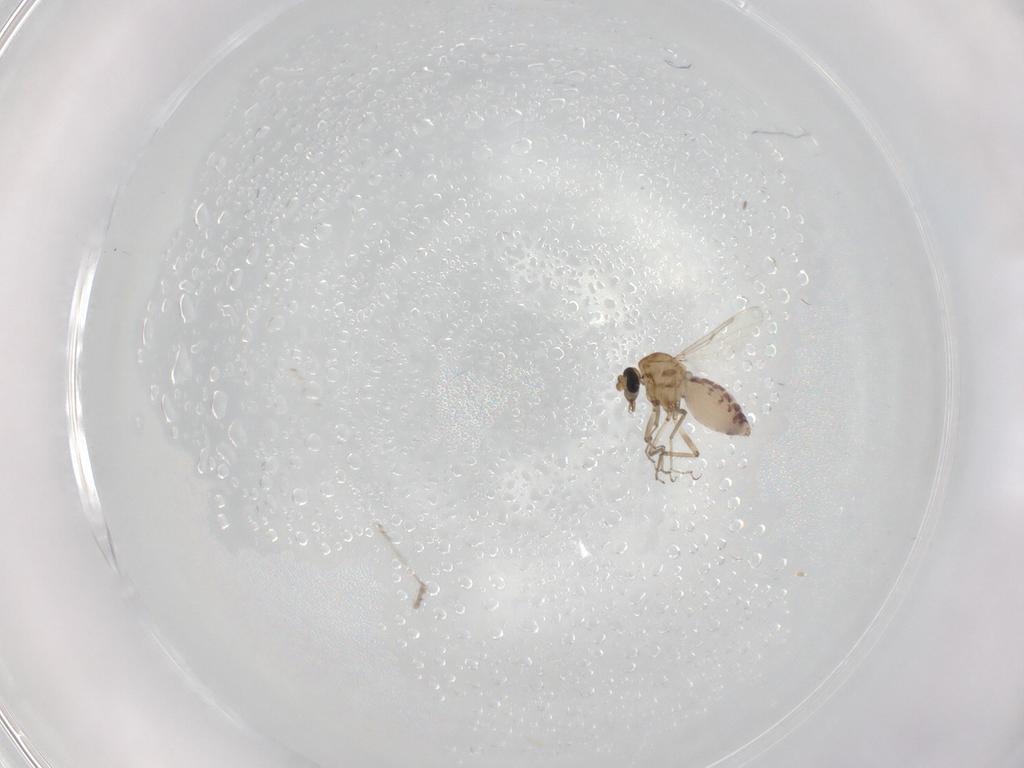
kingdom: Animalia
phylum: Arthropoda
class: Insecta
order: Diptera
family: Ceratopogonidae
